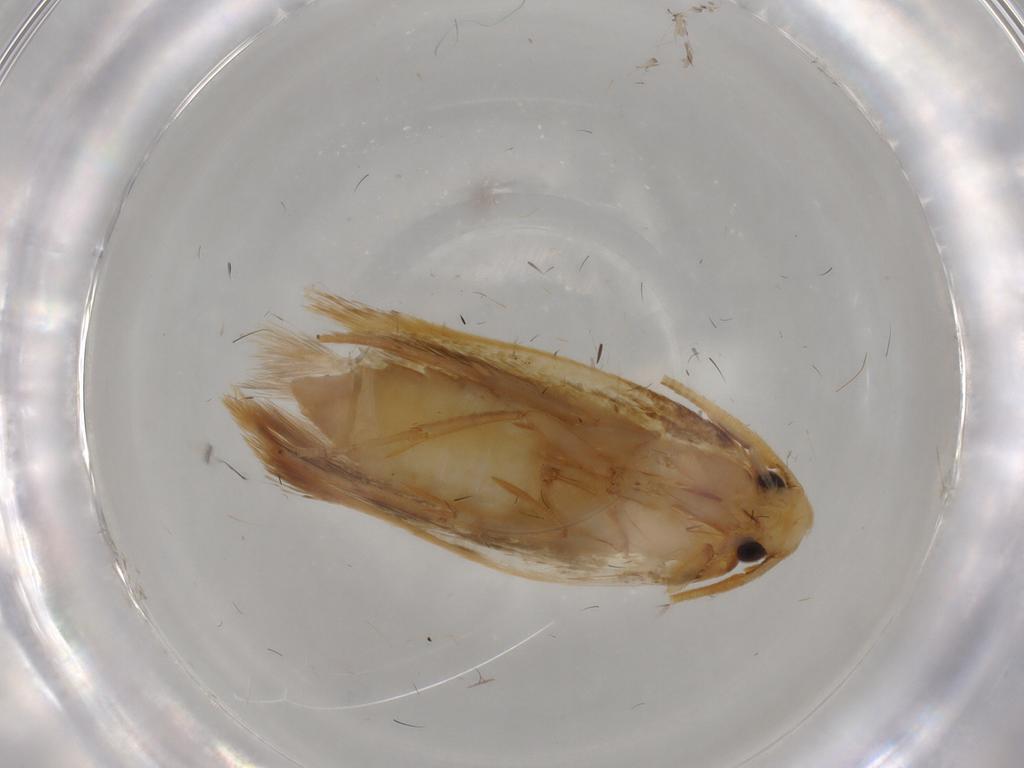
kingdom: Animalia
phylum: Arthropoda
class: Insecta
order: Lepidoptera
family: Tineidae
